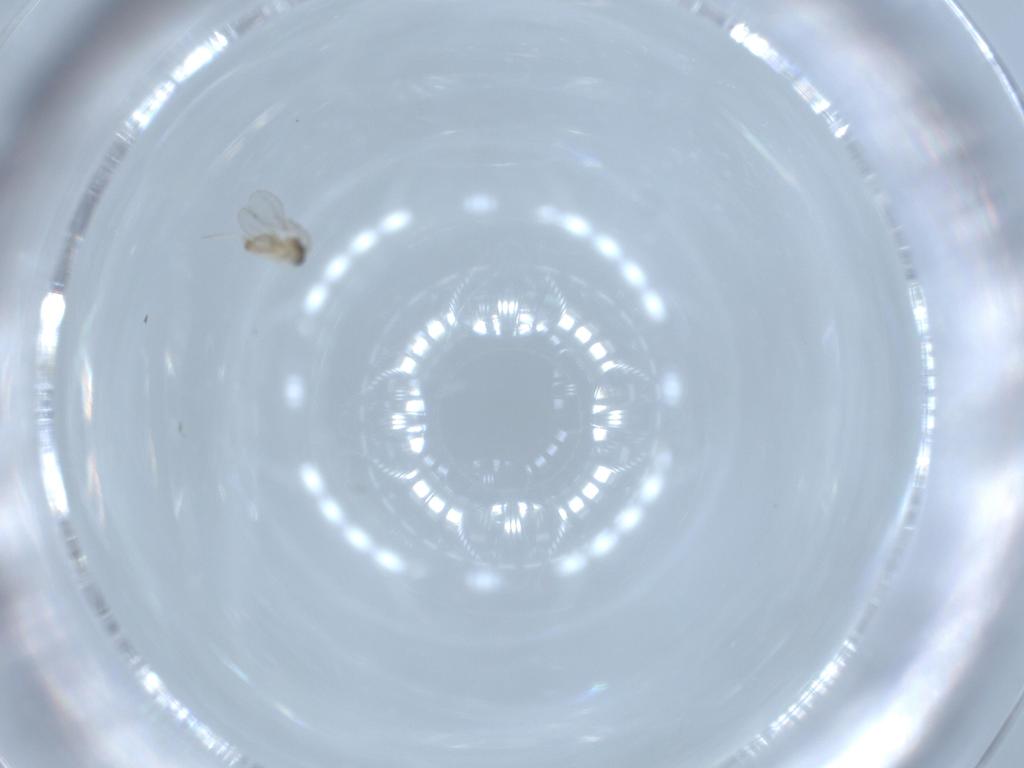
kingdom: Animalia
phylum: Arthropoda
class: Insecta
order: Diptera
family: Cecidomyiidae
